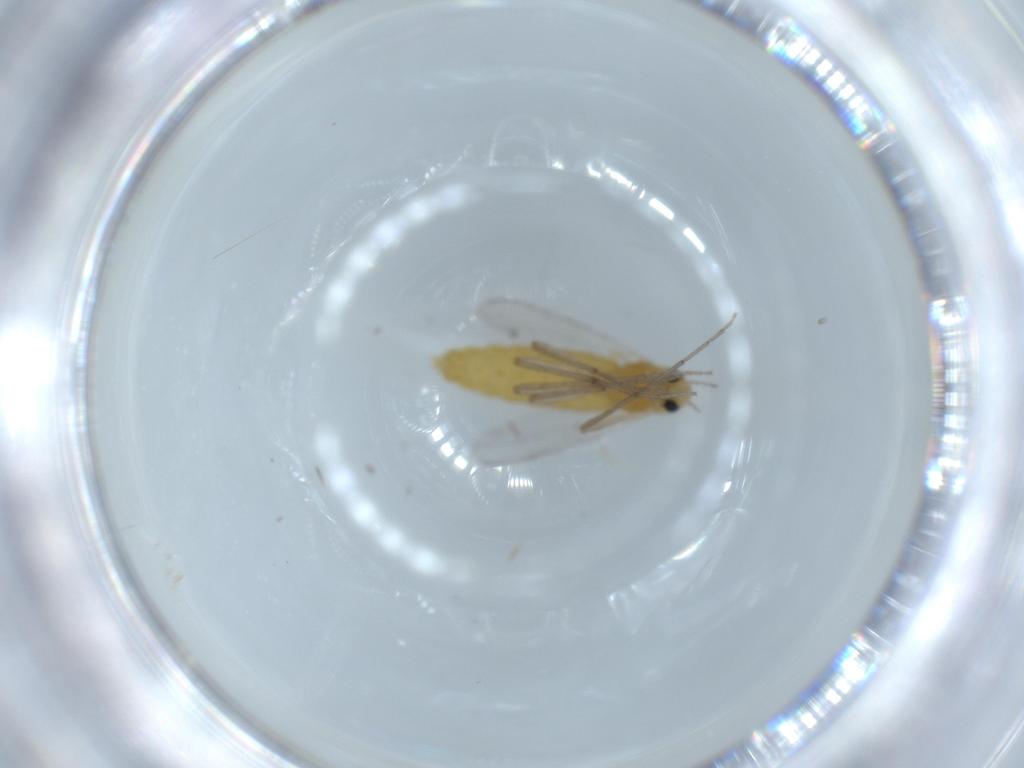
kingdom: Animalia
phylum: Arthropoda
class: Insecta
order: Diptera
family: Chironomidae
